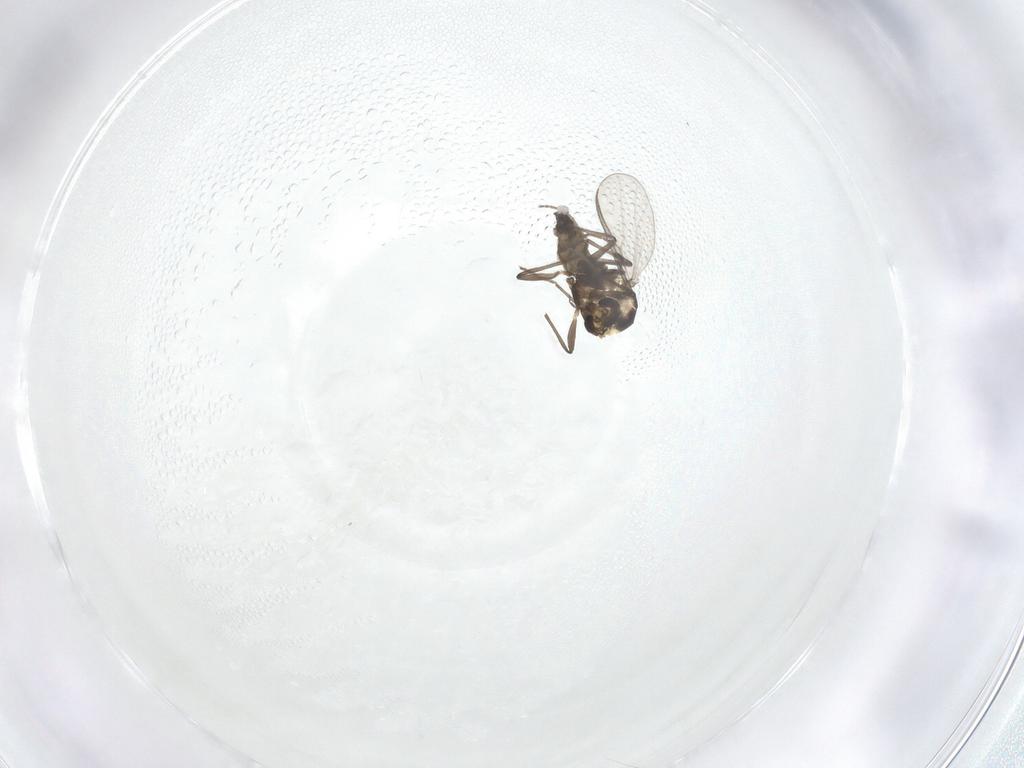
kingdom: Animalia
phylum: Arthropoda
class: Insecta
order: Diptera
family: Chironomidae
